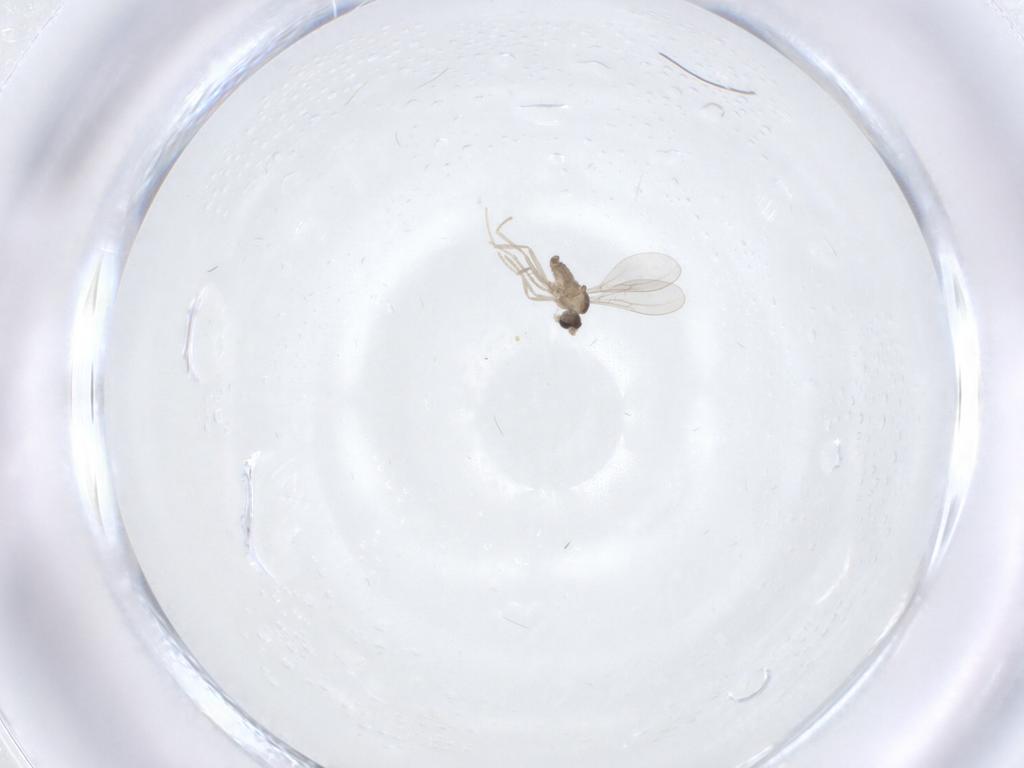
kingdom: Animalia
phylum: Arthropoda
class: Insecta
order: Diptera
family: Cecidomyiidae
